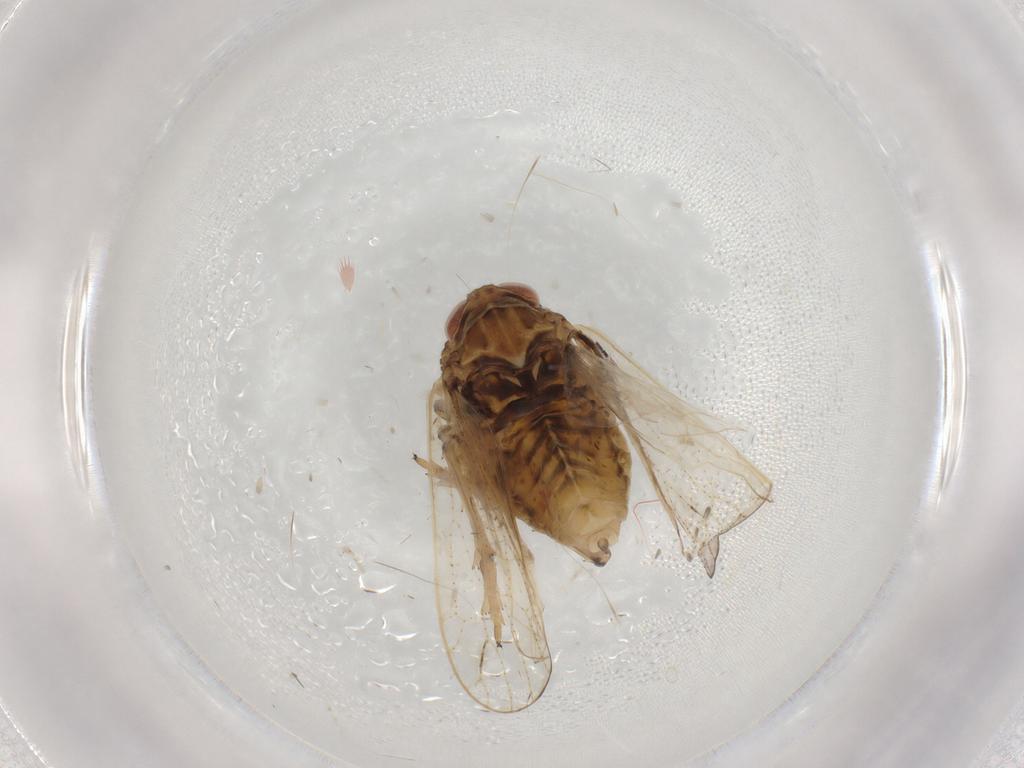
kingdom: Animalia
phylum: Arthropoda
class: Insecta
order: Hemiptera
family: Delphacidae
